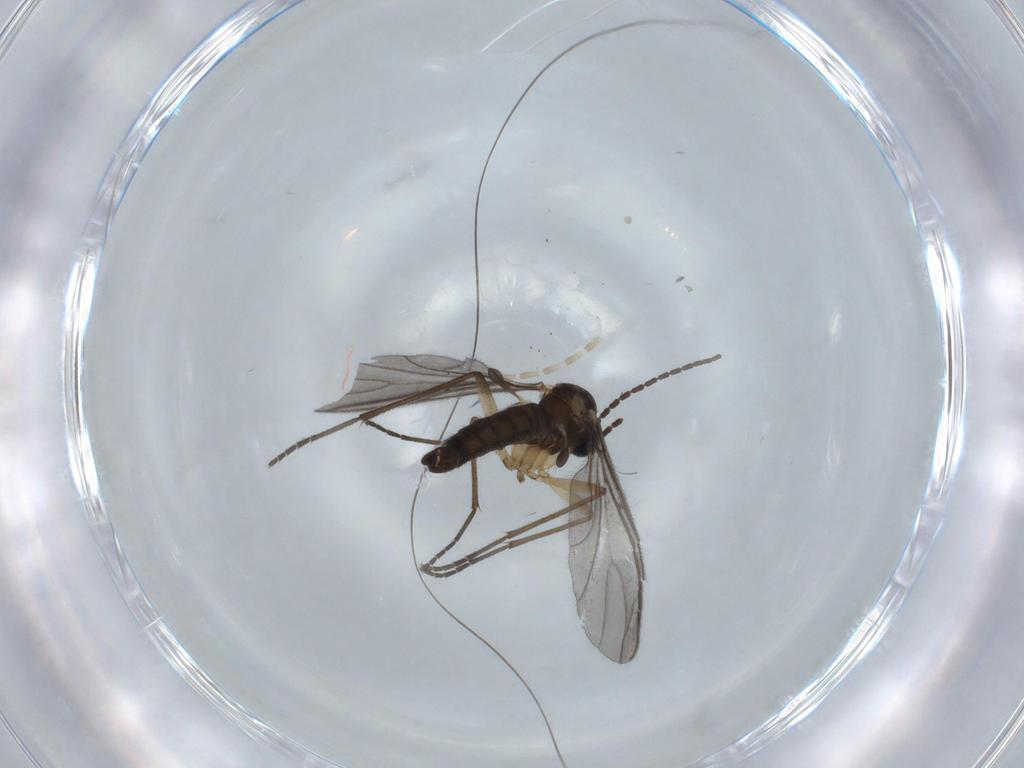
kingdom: Animalia
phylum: Arthropoda
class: Insecta
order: Diptera
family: Sciaridae
